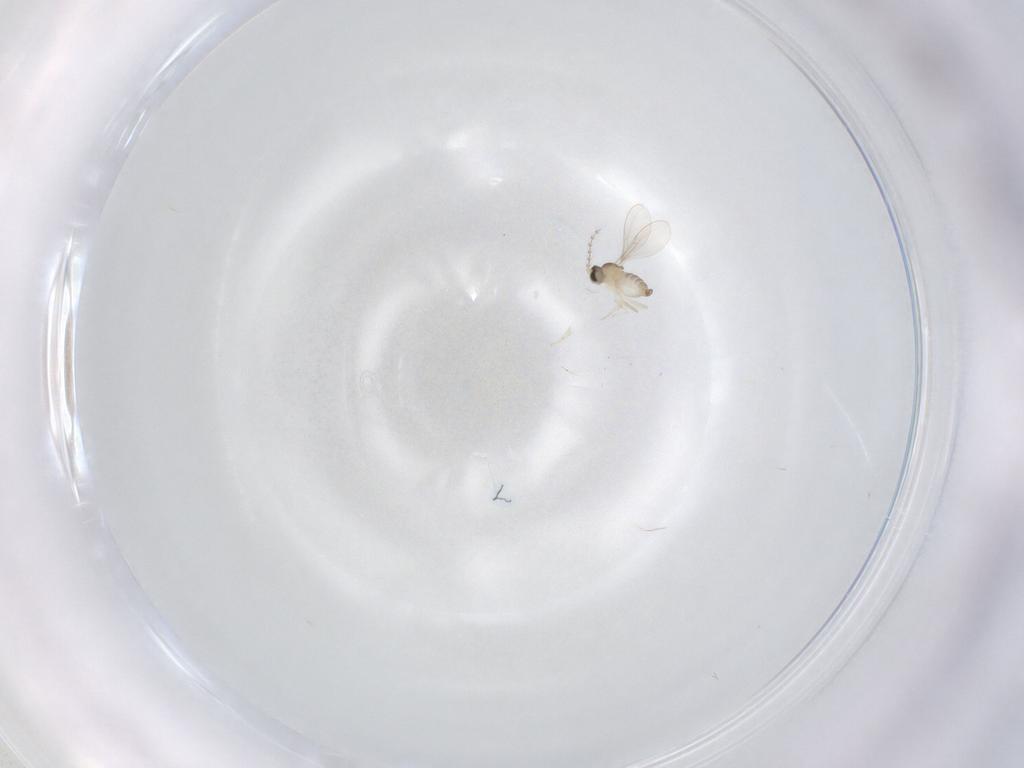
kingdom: Animalia
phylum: Arthropoda
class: Insecta
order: Diptera
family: Cecidomyiidae
